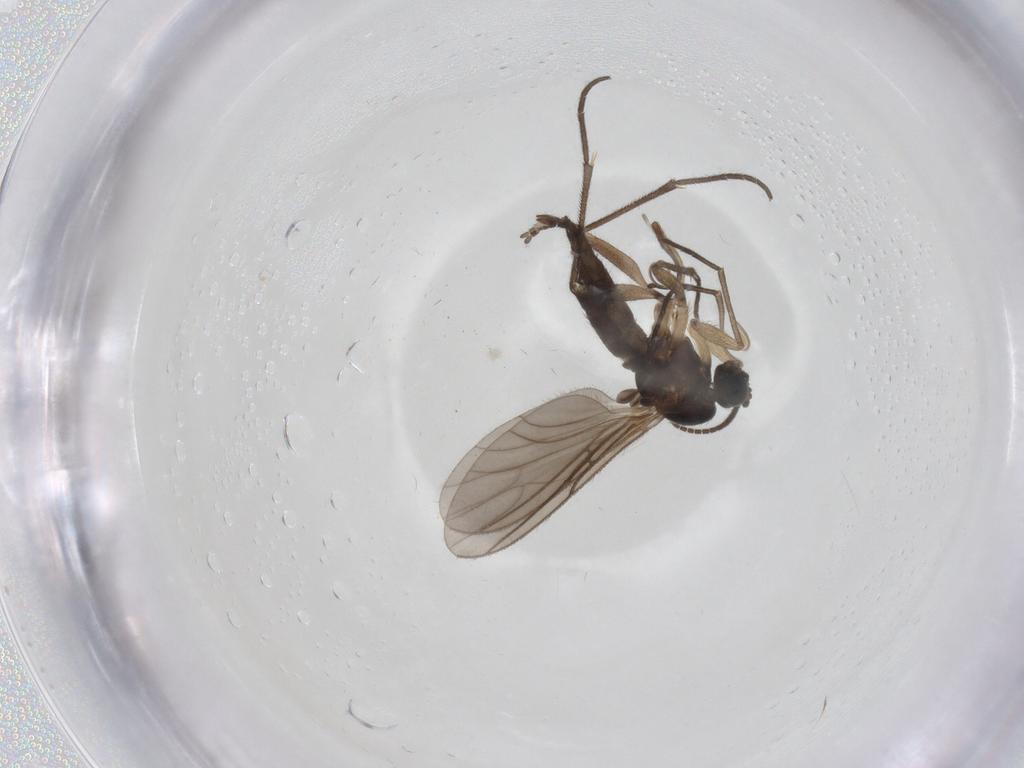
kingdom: Animalia
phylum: Arthropoda
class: Insecta
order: Diptera
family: Sciaridae
